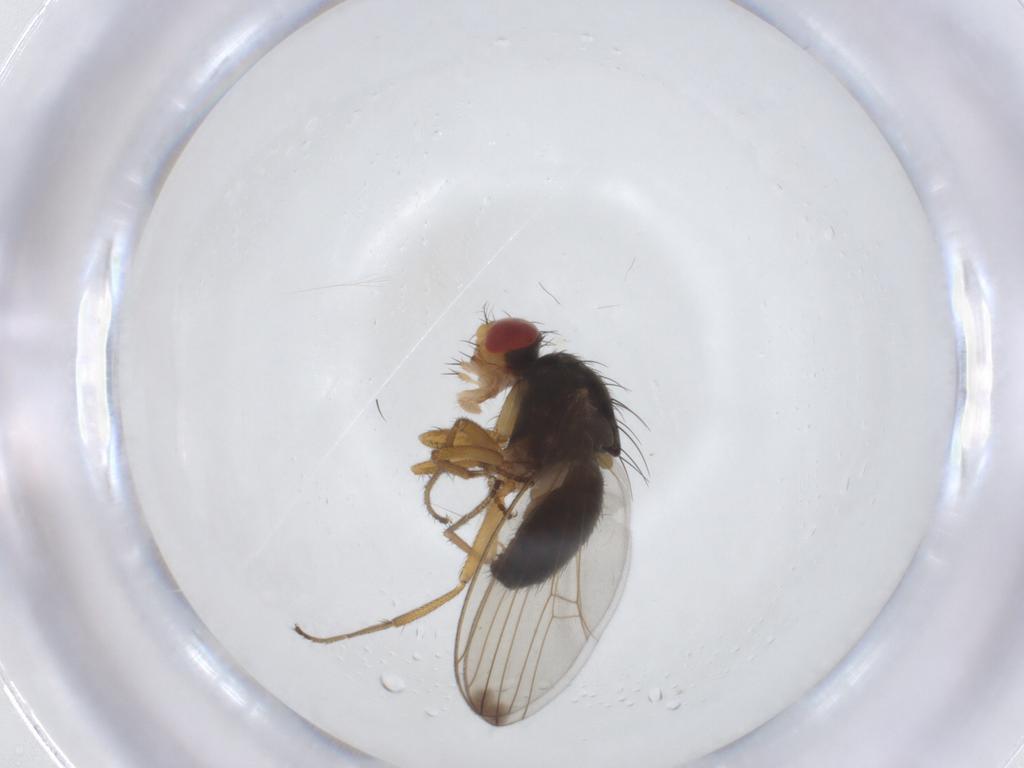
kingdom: Animalia
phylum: Arthropoda
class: Insecta
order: Diptera
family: Drosophilidae
